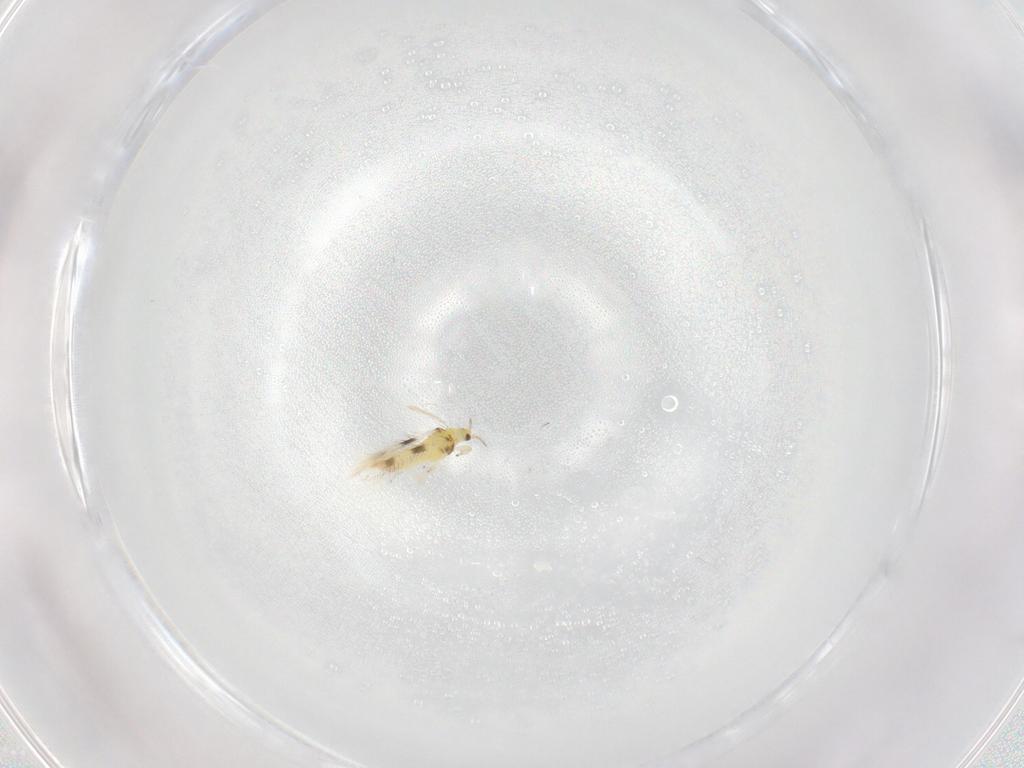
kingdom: Animalia
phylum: Arthropoda
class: Insecta
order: Thysanoptera
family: Thripidae
